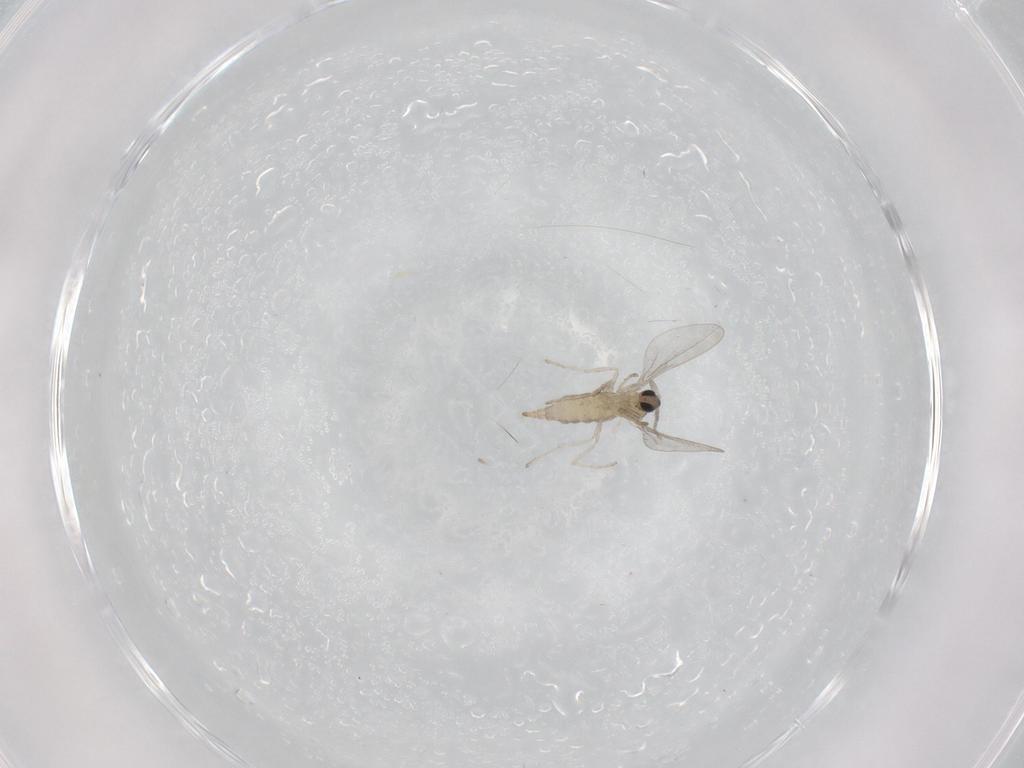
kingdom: Animalia
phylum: Arthropoda
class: Insecta
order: Diptera
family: Cecidomyiidae
